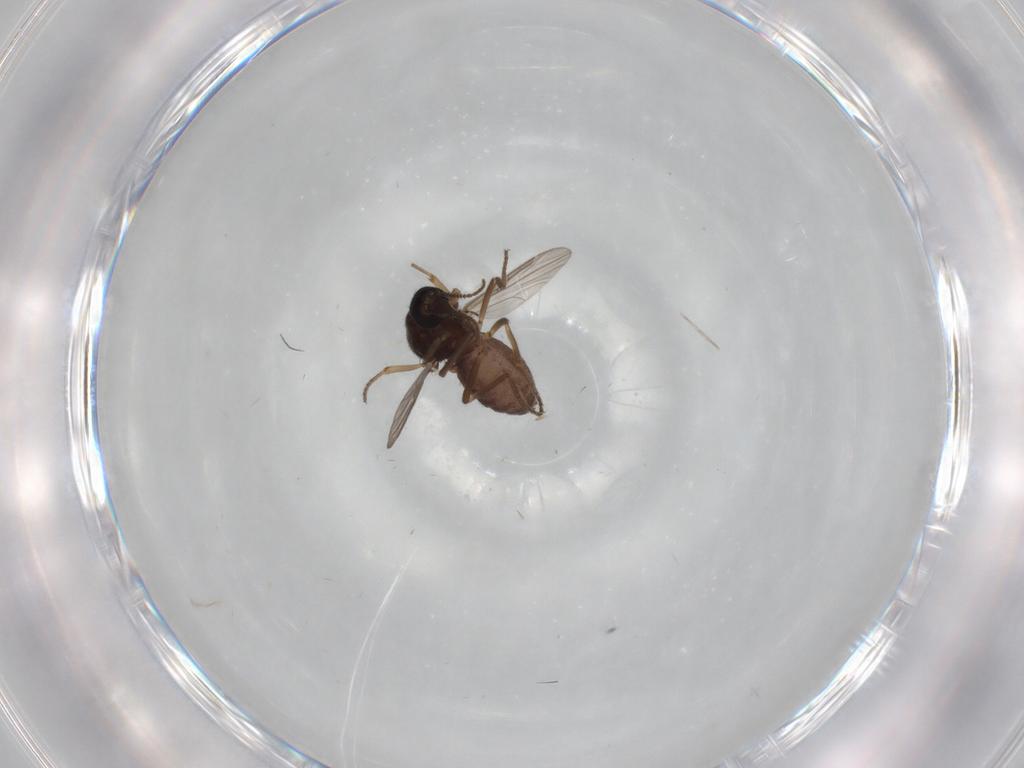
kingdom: Animalia
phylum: Arthropoda
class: Insecta
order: Diptera
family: Ceratopogonidae
